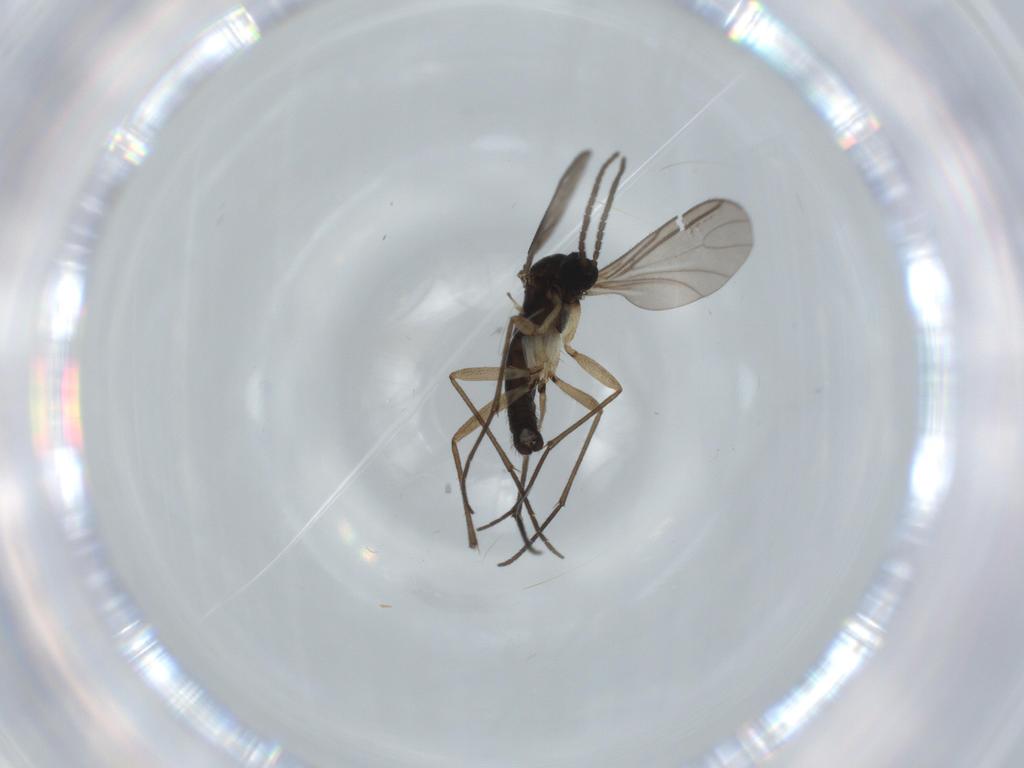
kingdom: Animalia
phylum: Arthropoda
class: Insecta
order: Diptera
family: Sciaridae
